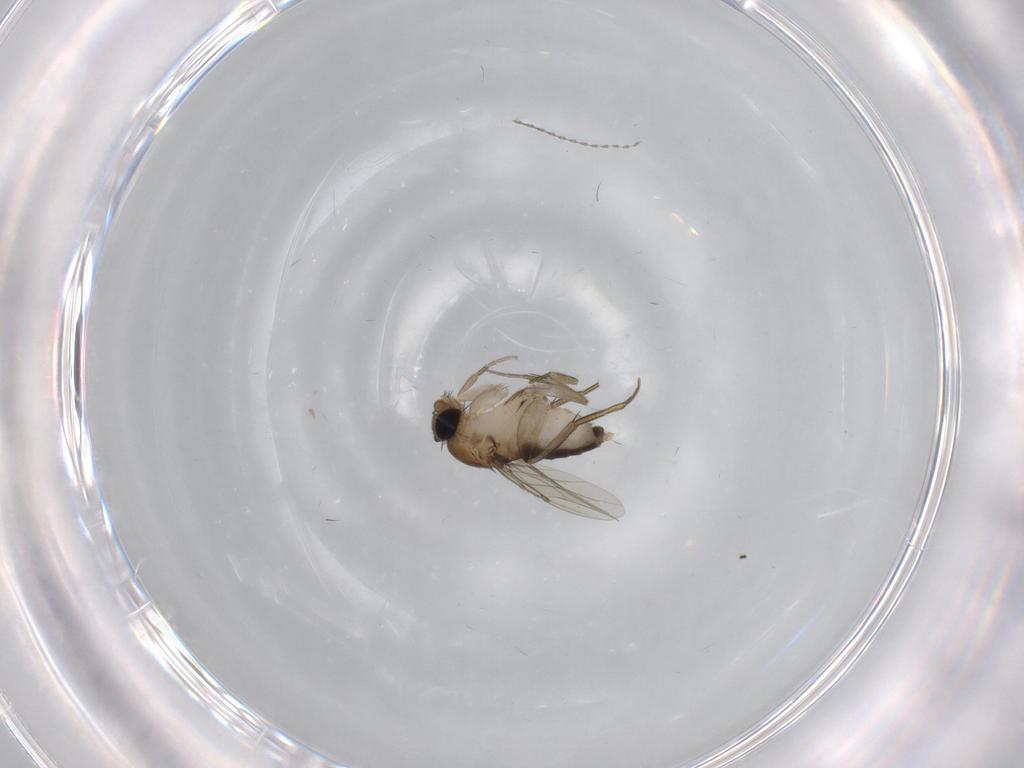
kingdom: Animalia
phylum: Arthropoda
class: Insecta
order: Diptera
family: Phoridae
